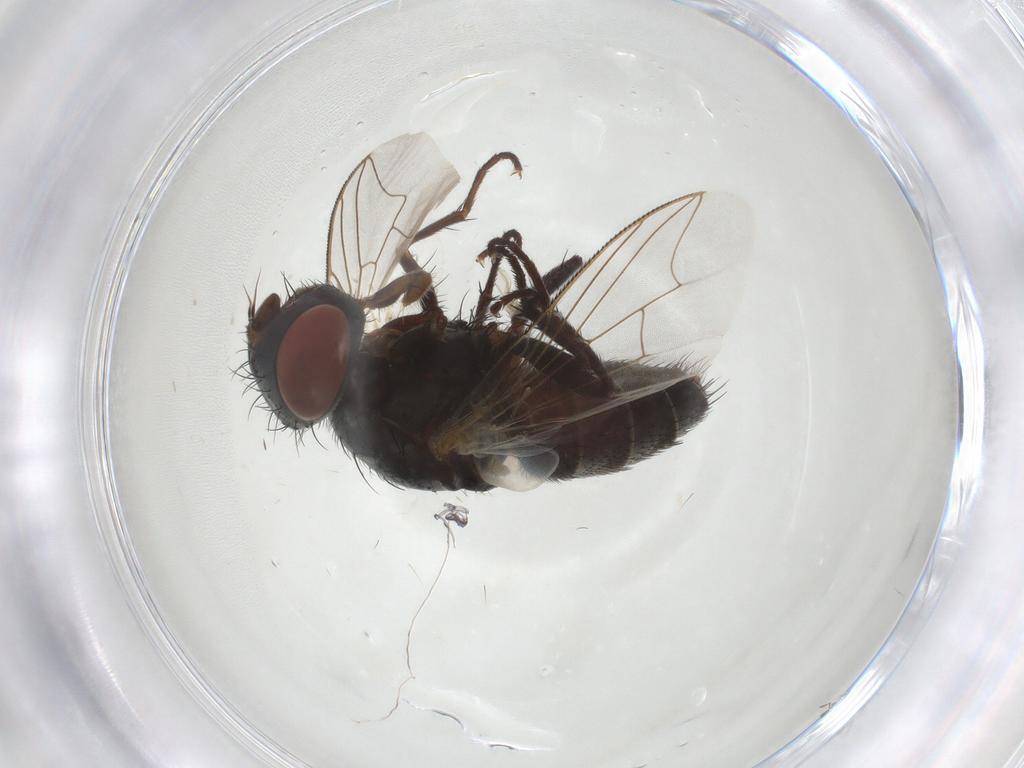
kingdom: Animalia
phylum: Arthropoda
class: Insecta
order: Diptera
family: Sarcophagidae
